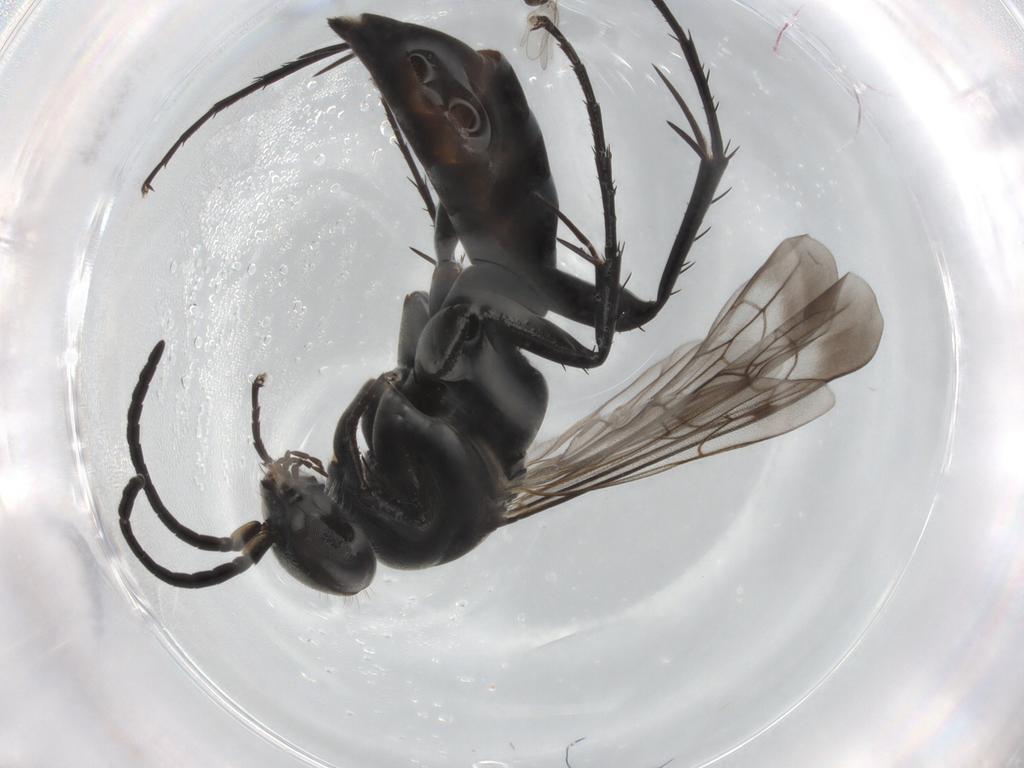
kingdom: Animalia
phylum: Arthropoda
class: Insecta
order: Hymenoptera
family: Pompilidae
